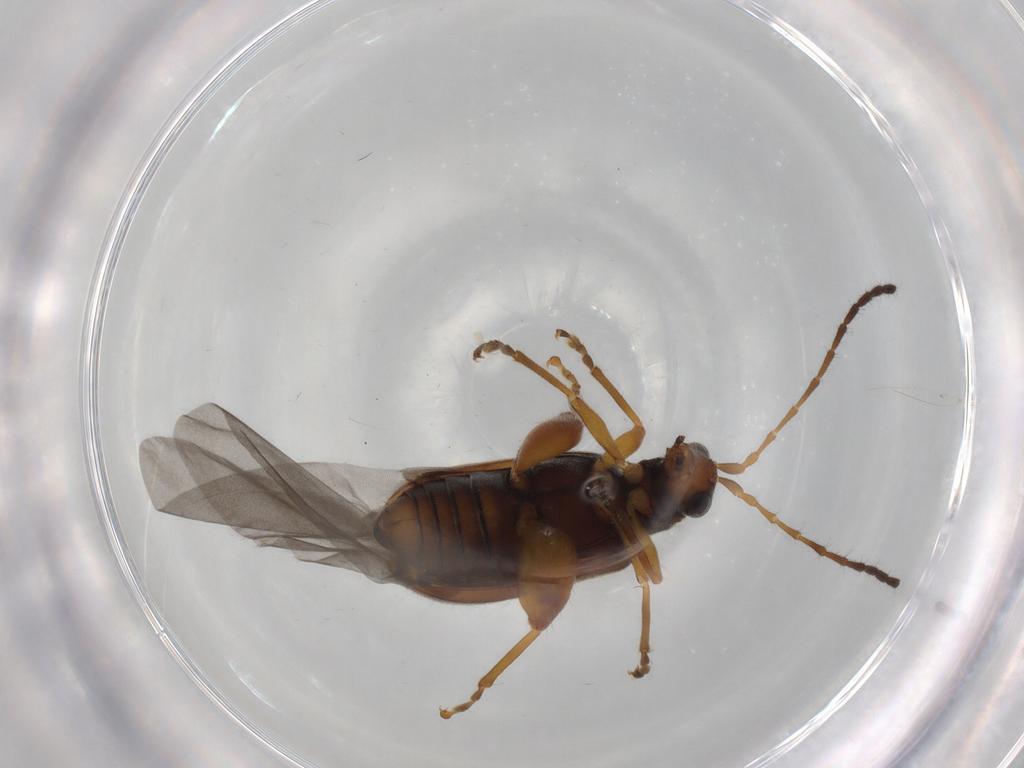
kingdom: Animalia
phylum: Arthropoda
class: Insecta
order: Coleoptera
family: Chrysomelidae
